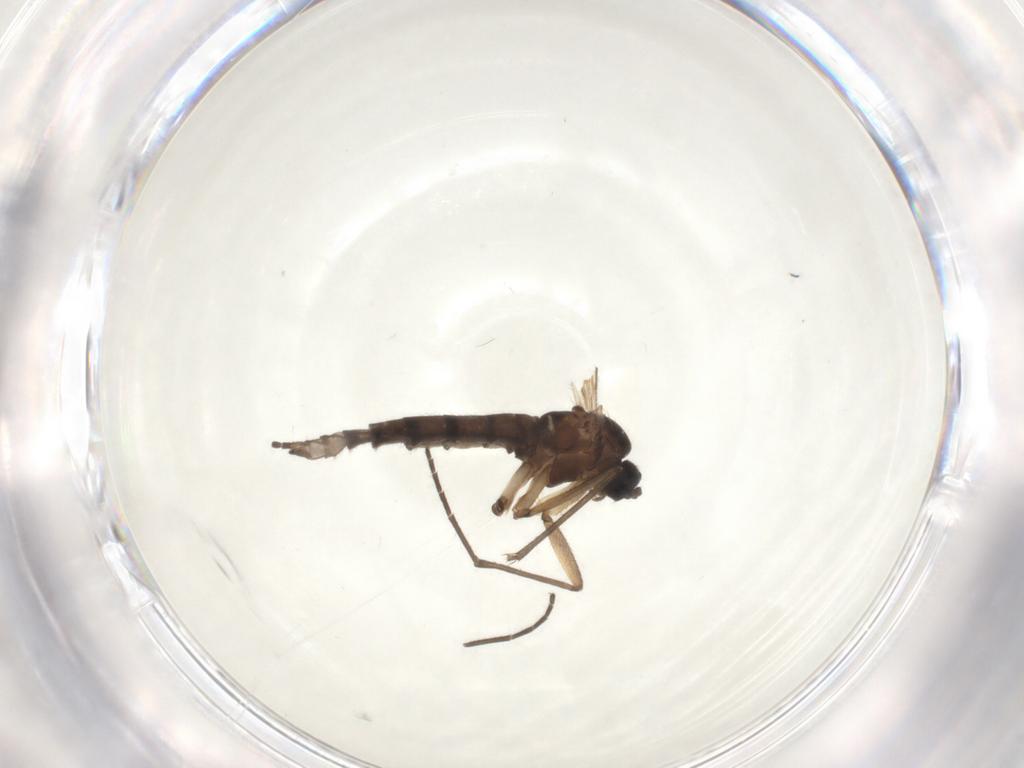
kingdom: Animalia
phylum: Arthropoda
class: Insecta
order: Diptera
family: Sciaridae
